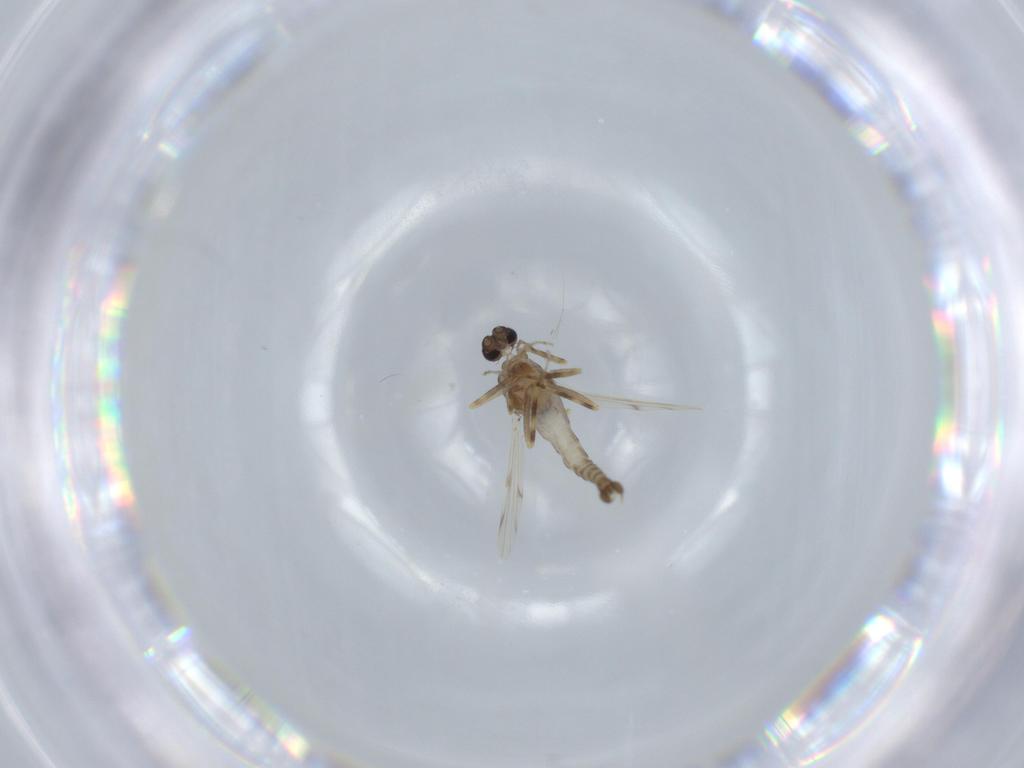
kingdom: Animalia
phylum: Arthropoda
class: Insecta
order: Diptera
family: Ceratopogonidae
